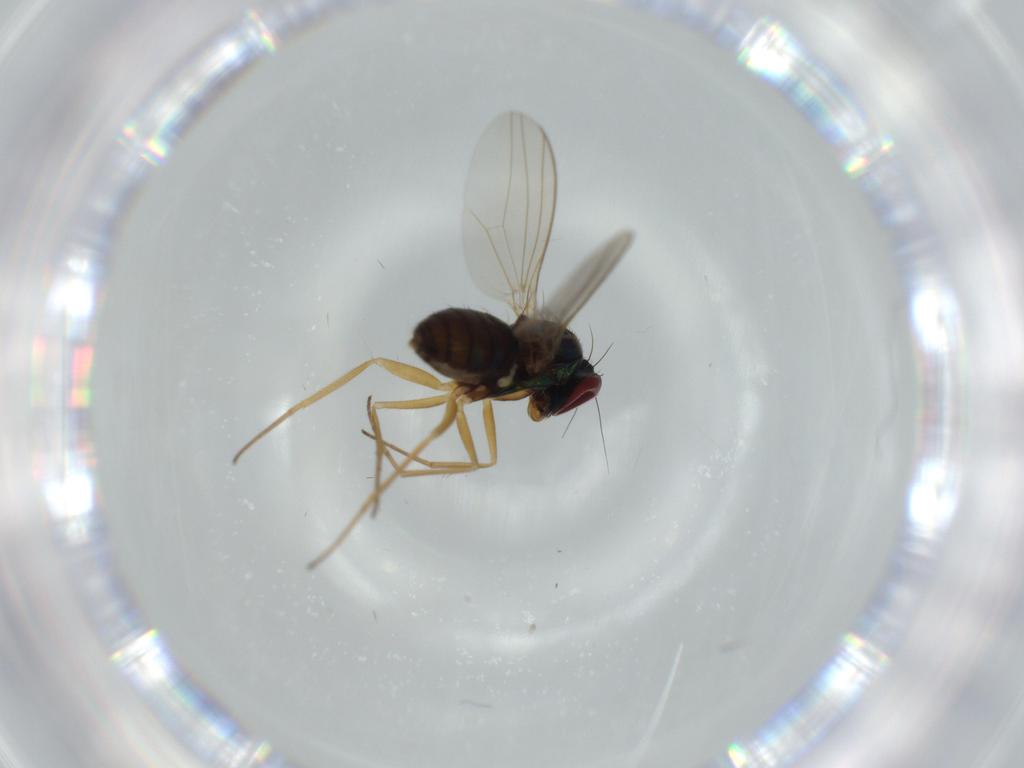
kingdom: Animalia
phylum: Arthropoda
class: Insecta
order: Diptera
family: Dolichopodidae
